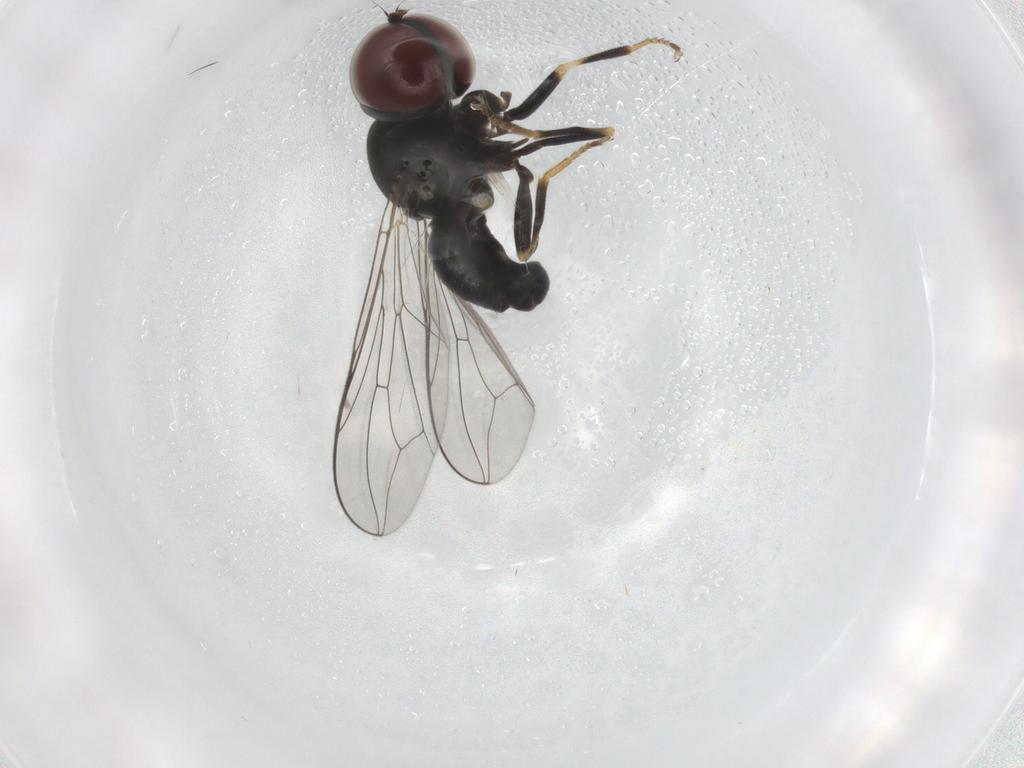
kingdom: Animalia
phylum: Arthropoda
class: Insecta
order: Diptera
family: Pipunculidae
